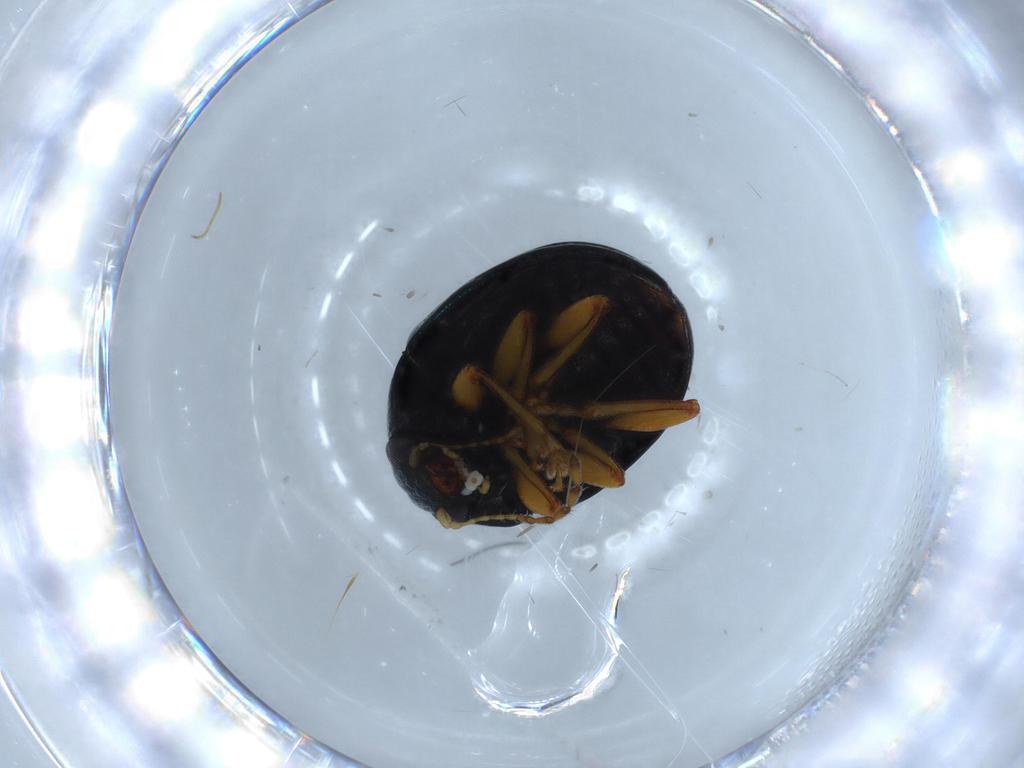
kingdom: Animalia
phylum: Arthropoda
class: Insecta
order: Coleoptera
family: Chrysomelidae
